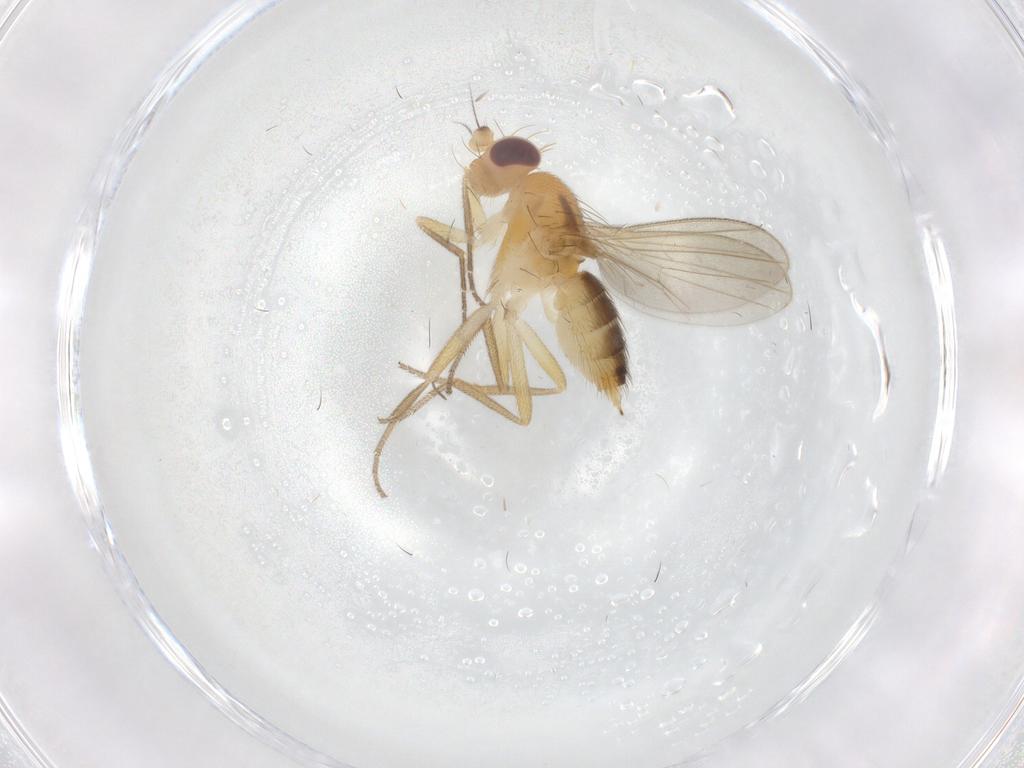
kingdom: Animalia
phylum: Arthropoda
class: Insecta
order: Diptera
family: Clusiidae
